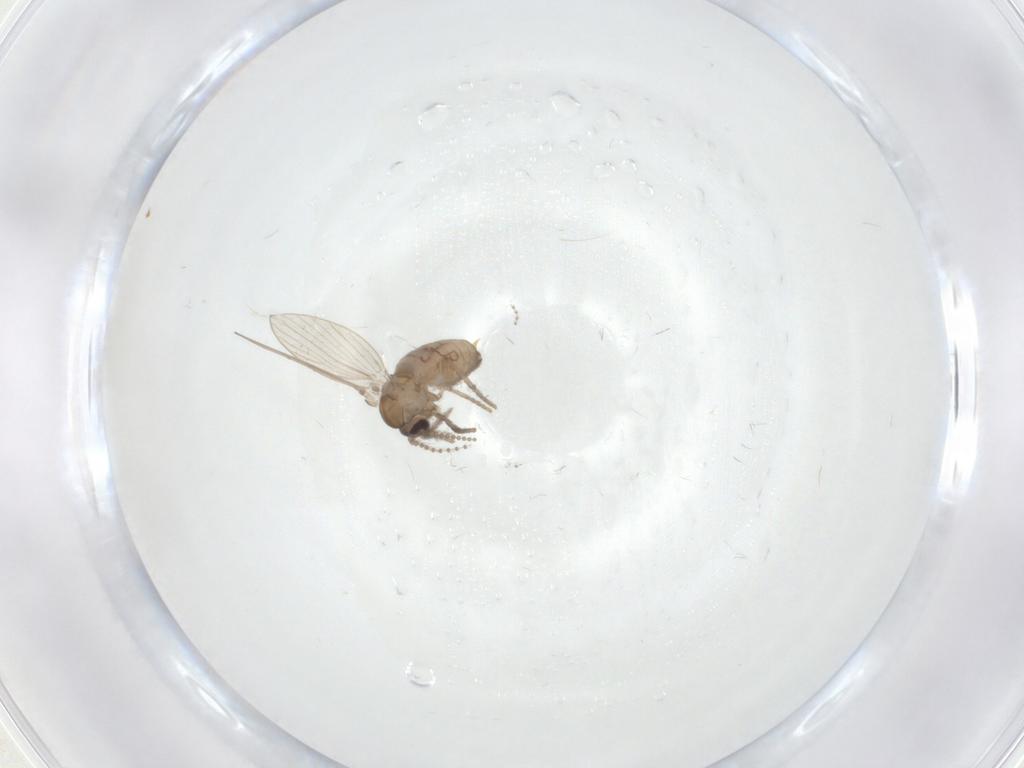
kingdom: Animalia
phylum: Arthropoda
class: Insecta
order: Diptera
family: Psychodidae
